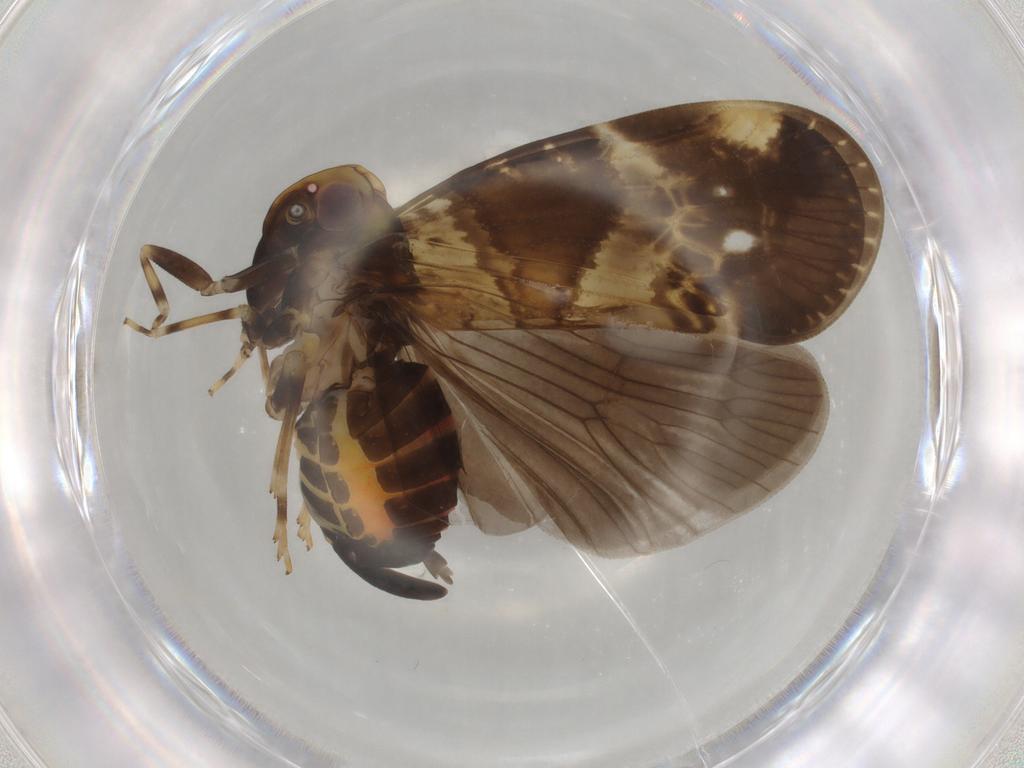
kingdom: Animalia
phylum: Arthropoda
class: Insecta
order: Hemiptera
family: Cixiidae
